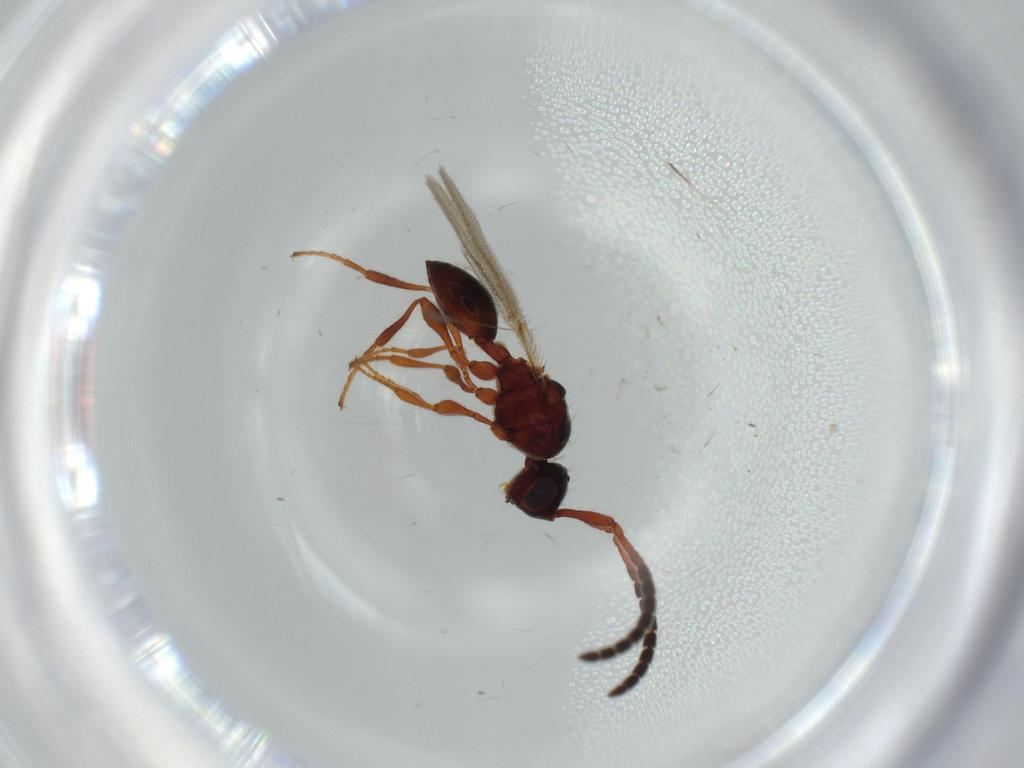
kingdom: Animalia
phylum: Arthropoda
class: Insecta
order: Hymenoptera
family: Diapriidae
